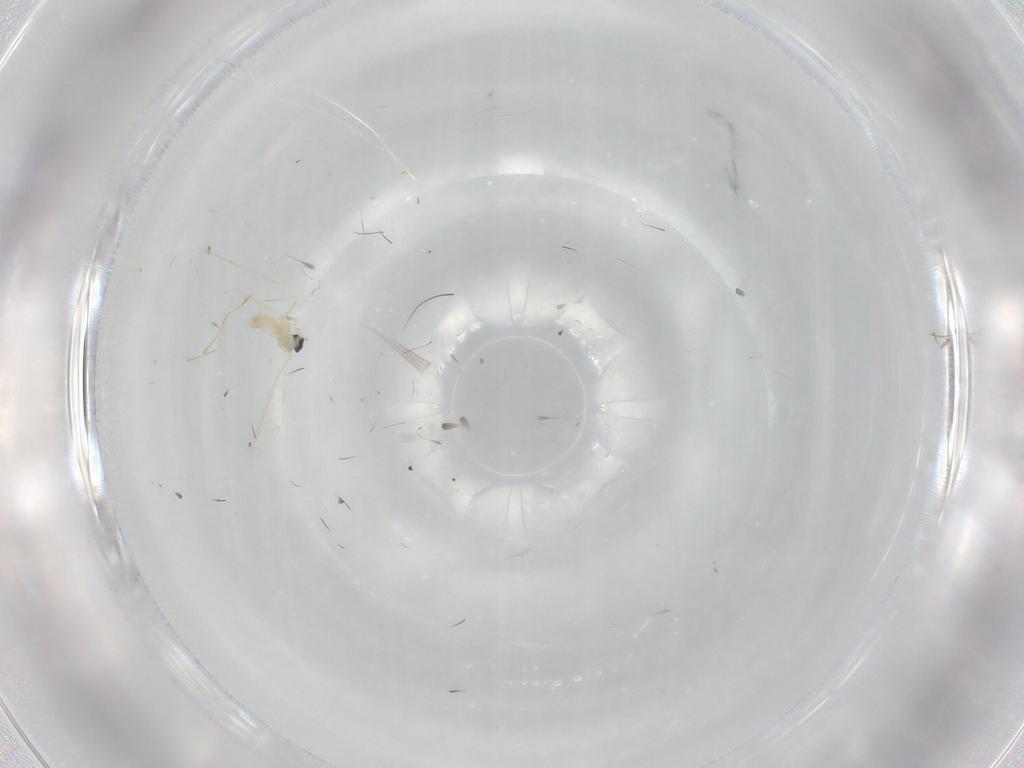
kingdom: Animalia
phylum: Arthropoda
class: Insecta
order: Diptera
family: Cecidomyiidae
